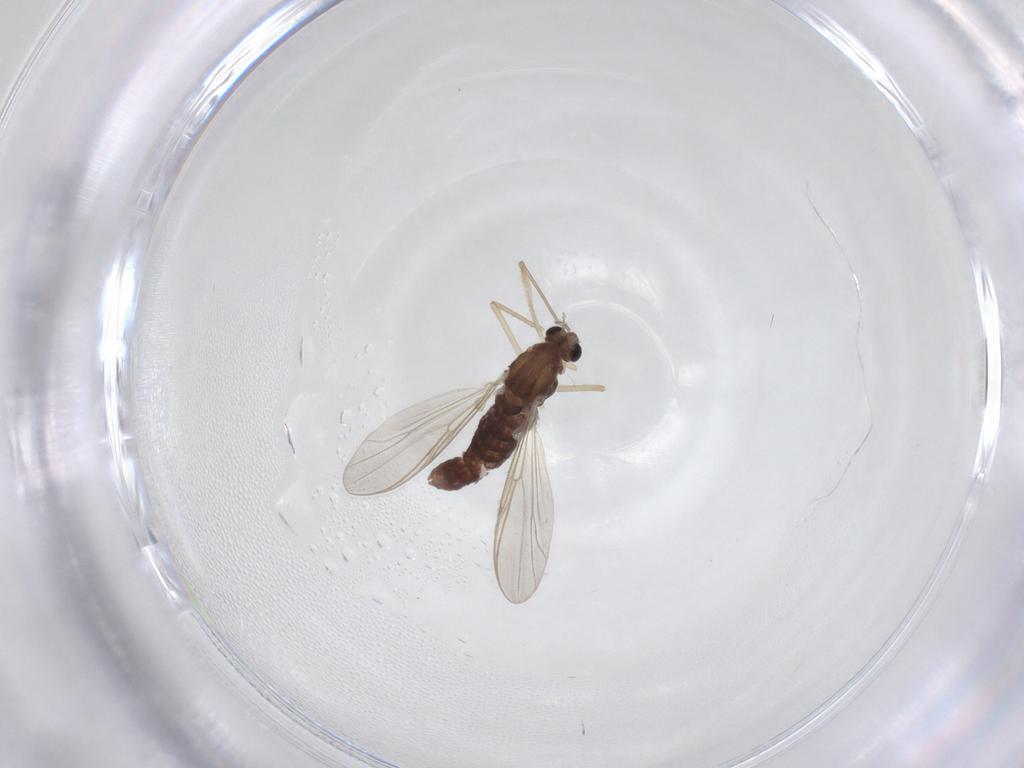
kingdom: Animalia
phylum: Arthropoda
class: Insecta
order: Diptera
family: Chironomidae
